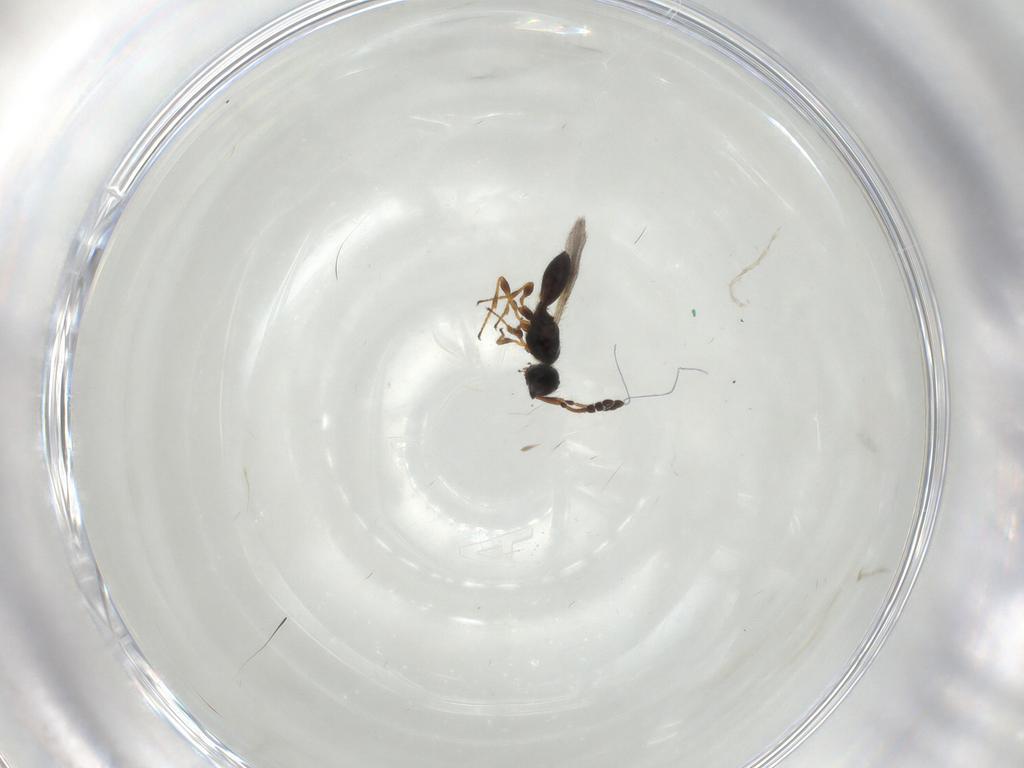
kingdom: Animalia
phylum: Arthropoda
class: Insecta
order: Hymenoptera
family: Diapriidae
